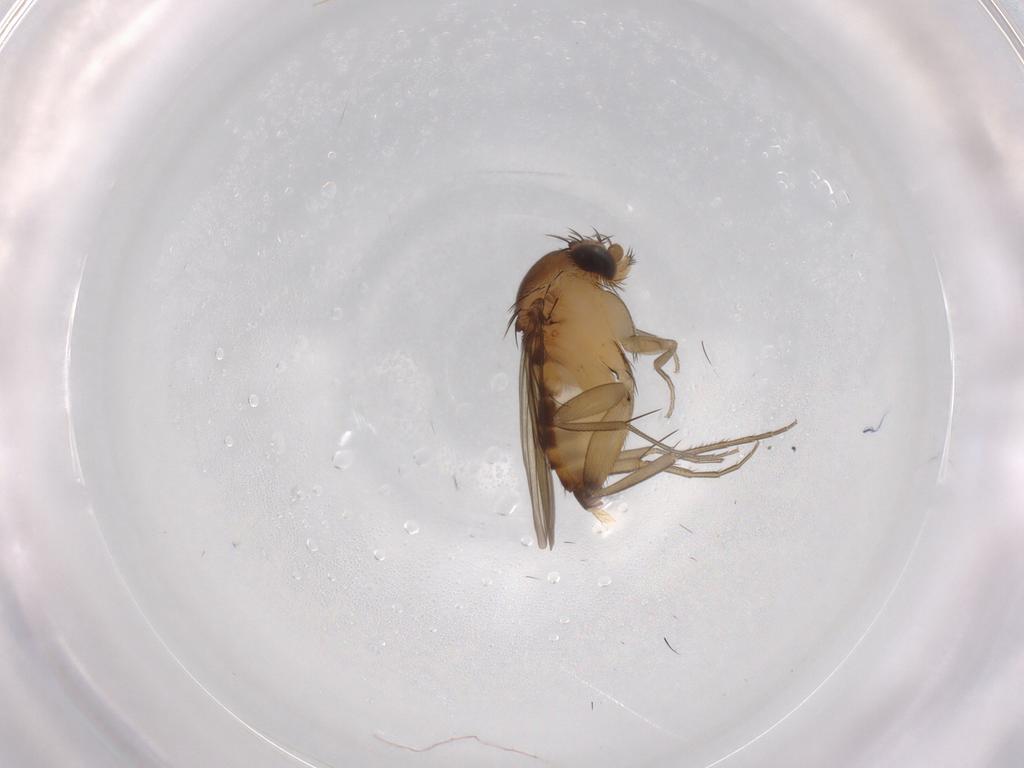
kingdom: Animalia
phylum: Arthropoda
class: Insecta
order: Diptera
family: Phoridae
